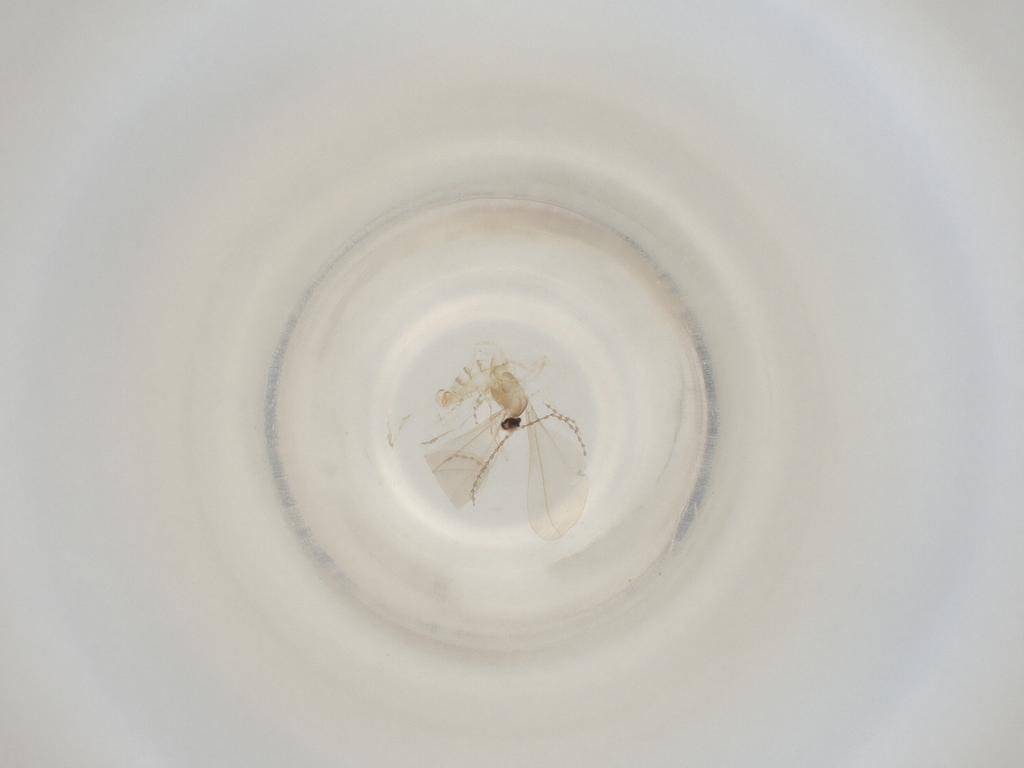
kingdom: Animalia
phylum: Arthropoda
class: Insecta
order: Diptera
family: Cecidomyiidae
